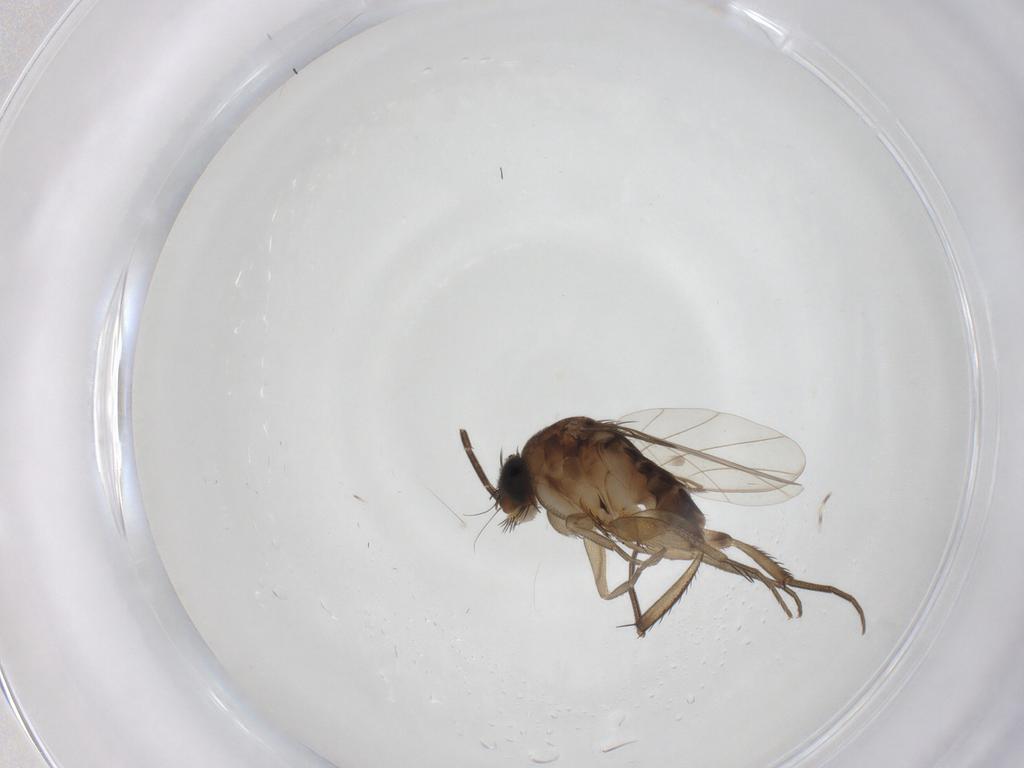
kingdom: Animalia
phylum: Arthropoda
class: Insecta
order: Diptera
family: Phoridae
